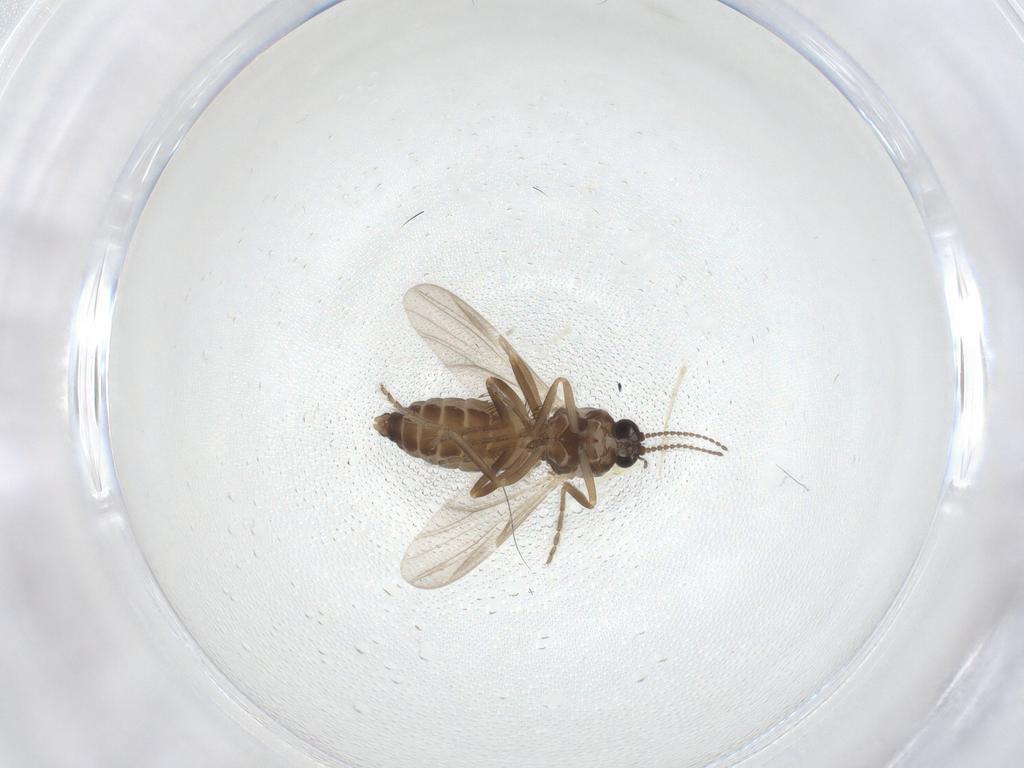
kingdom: Animalia
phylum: Arthropoda
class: Insecta
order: Diptera
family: Ceratopogonidae
